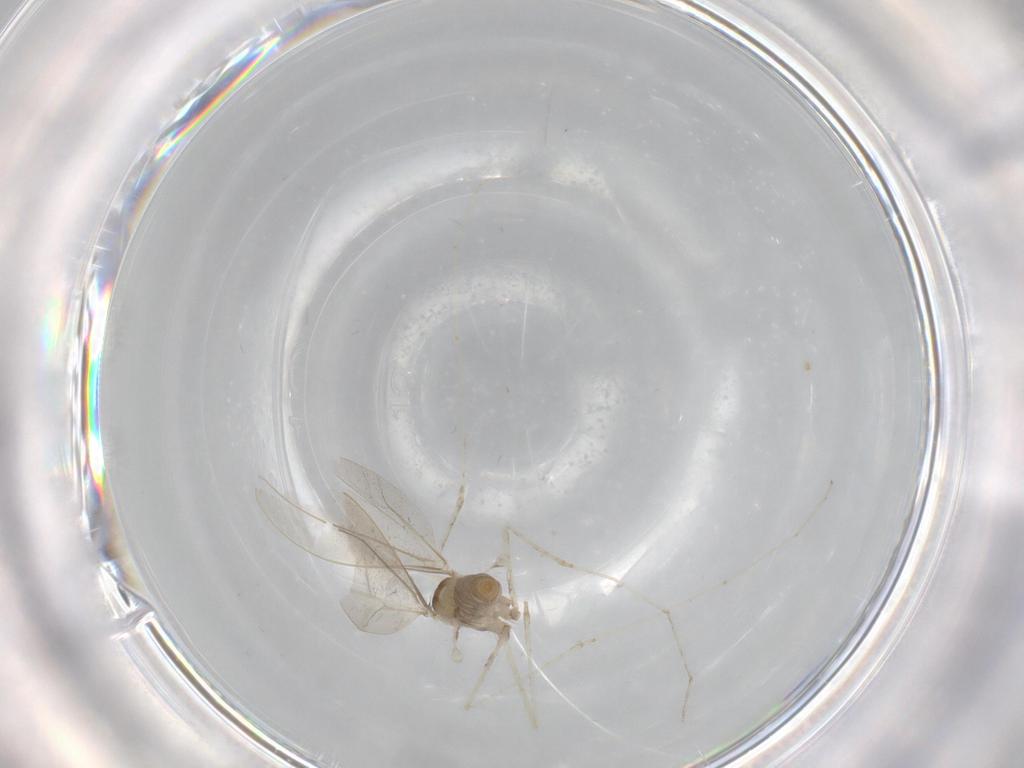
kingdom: Animalia
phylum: Arthropoda
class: Insecta
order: Diptera
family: Cecidomyiidae
